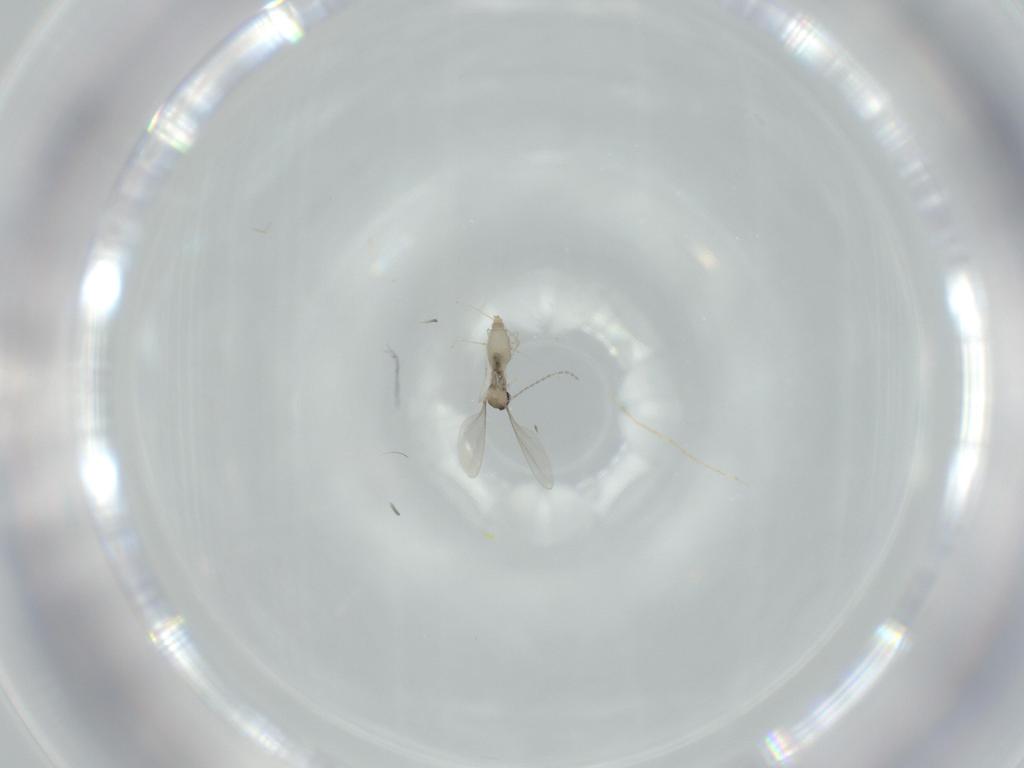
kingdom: Animalia
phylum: Arthropoda
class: Insecta
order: Diptera
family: Cecidomyiidae
